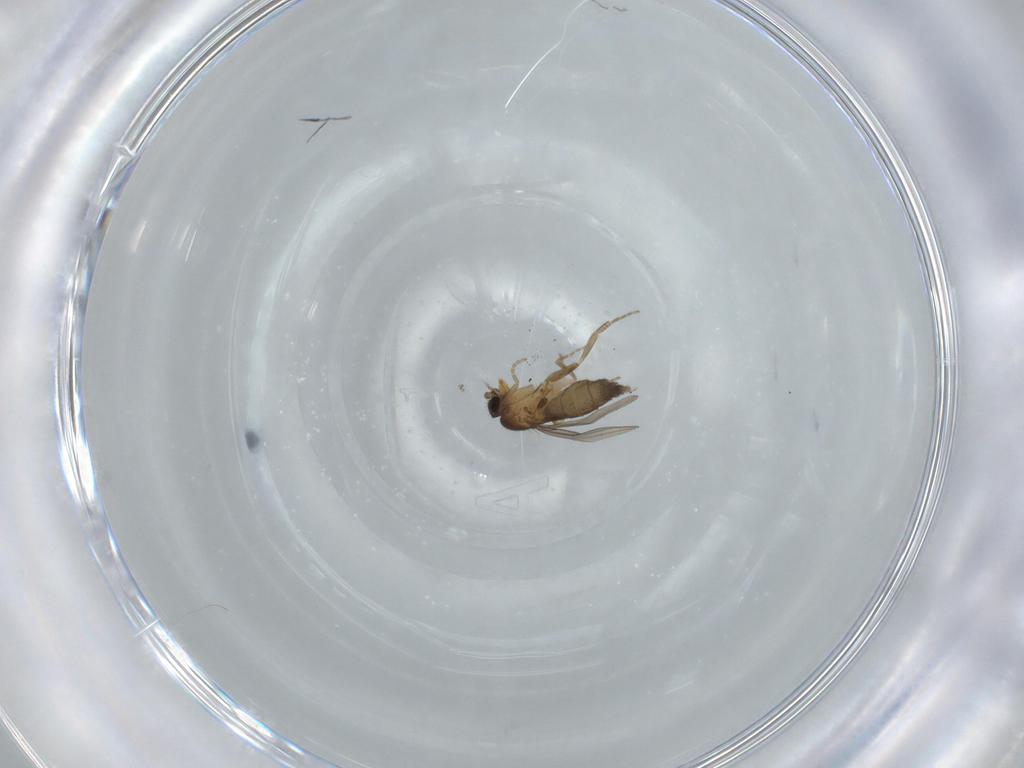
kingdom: Animalia
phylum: Arthropoda
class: Insecta
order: Diptera
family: Phoridae
